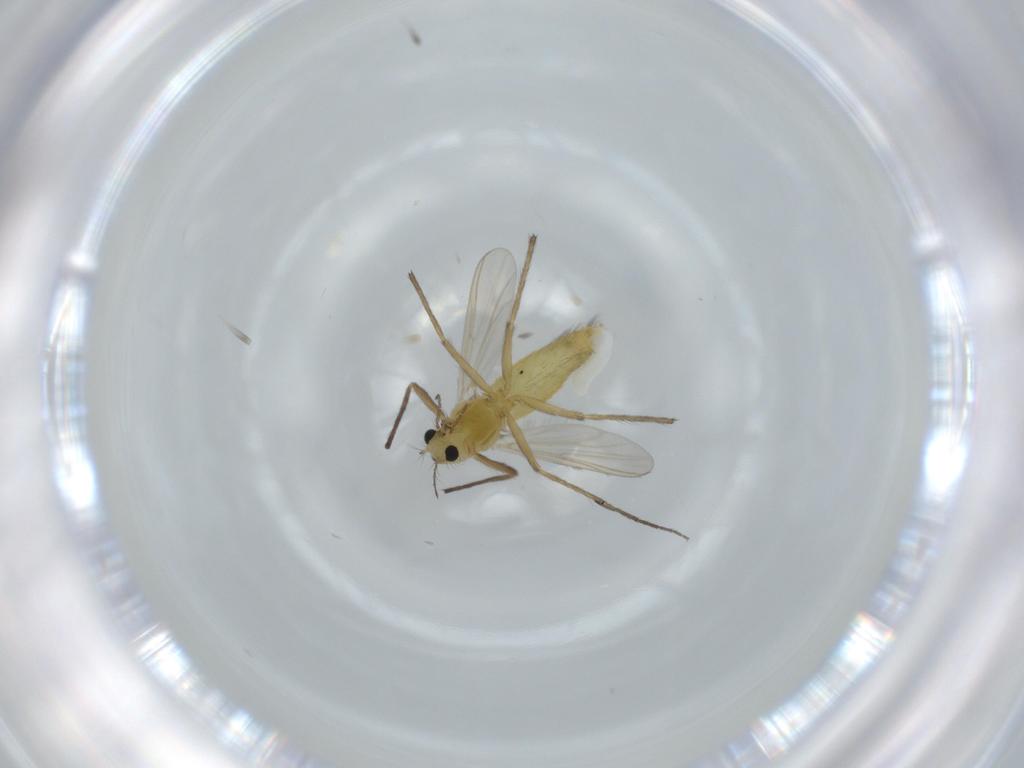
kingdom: Animalia
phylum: Arthropoda
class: Insecta
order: Diptera
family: Chironomidae
